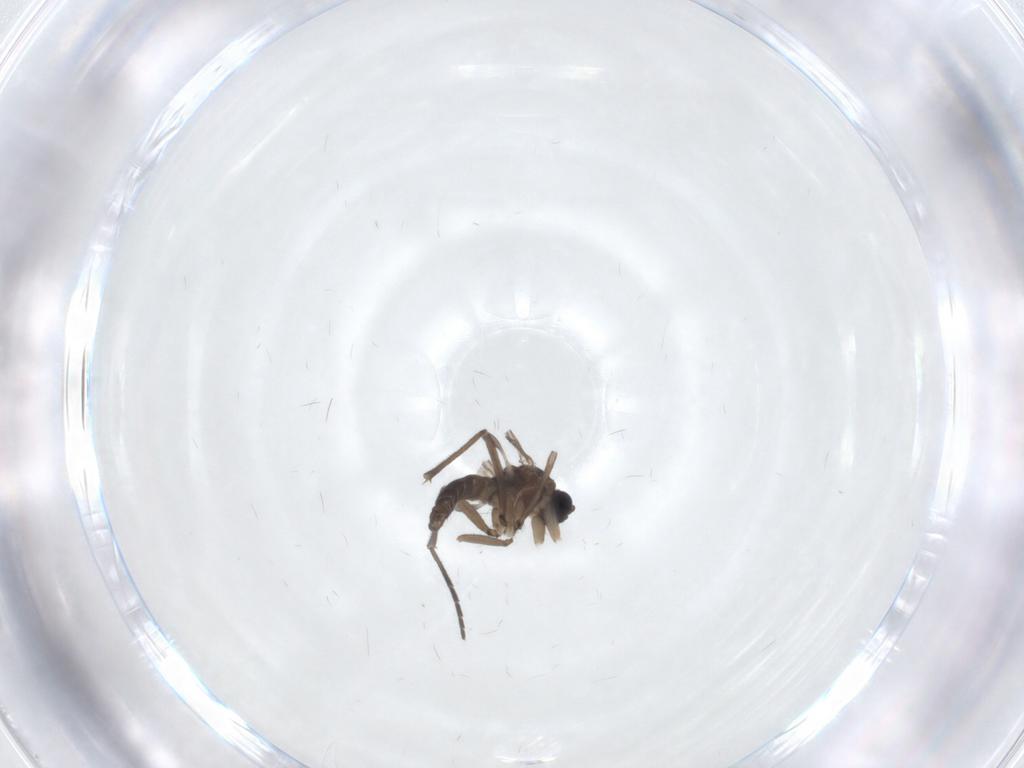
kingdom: Animalia
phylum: Arthropoda
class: Insecta
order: Diptera
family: Sciaridae
